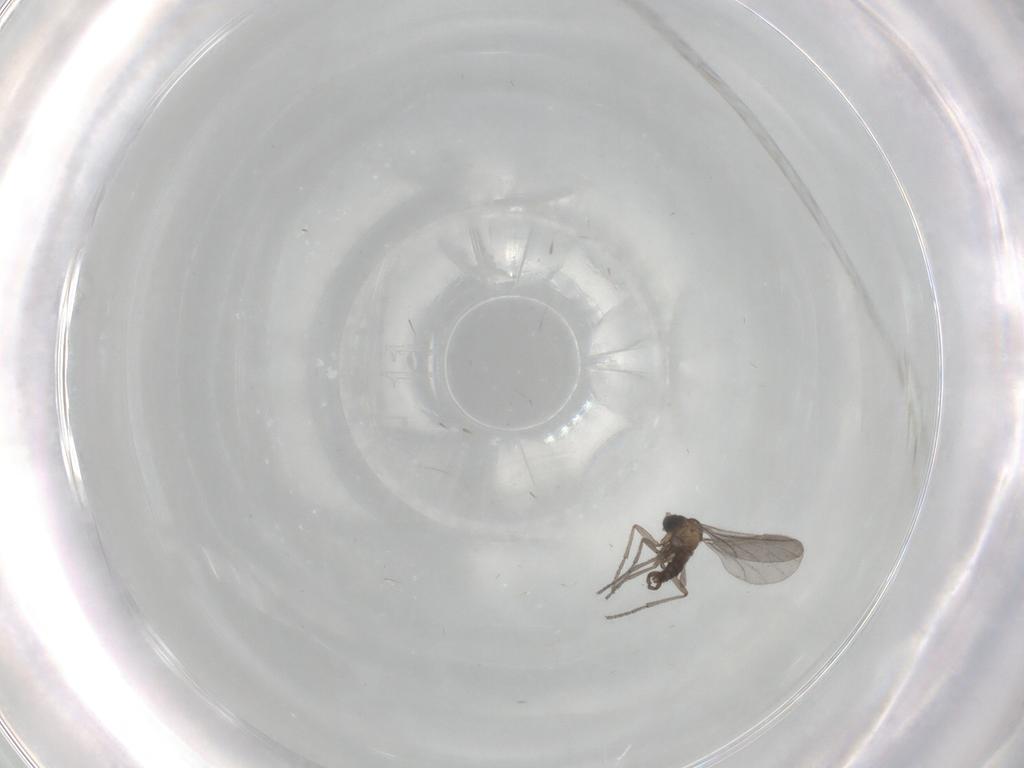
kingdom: Animalia
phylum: Arthropoda
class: Insecta
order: Diptera
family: Sciaridae
